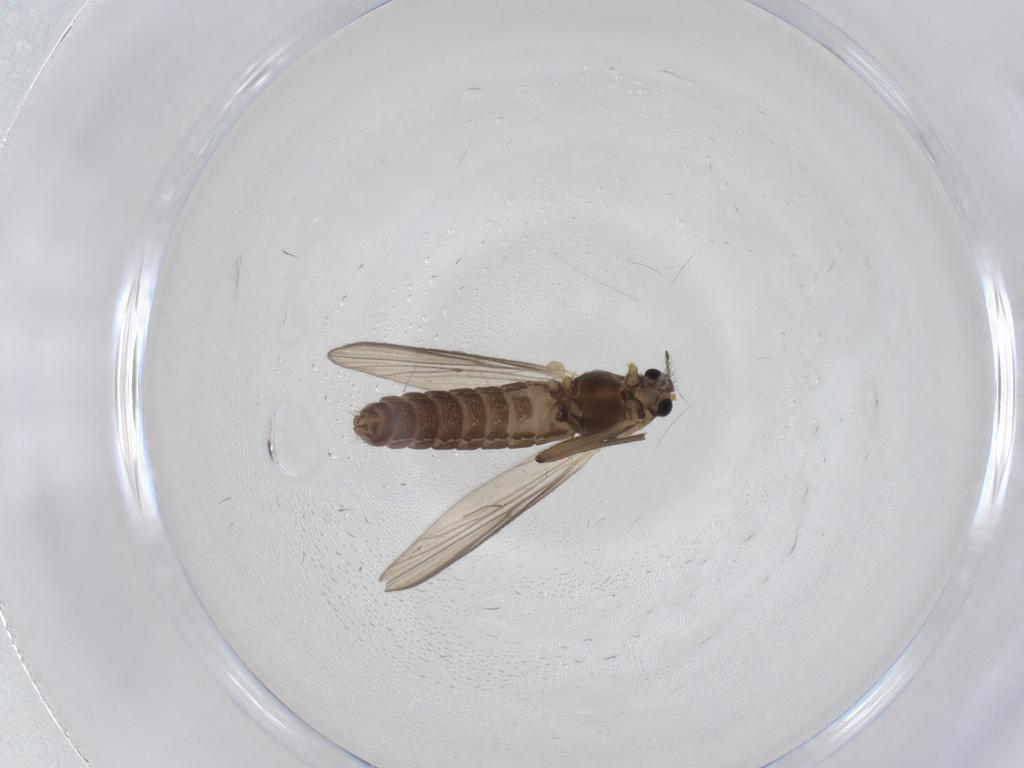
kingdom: Animalia
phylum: Arthropoda
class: Insecta
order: Diptera
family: Chironomidae
